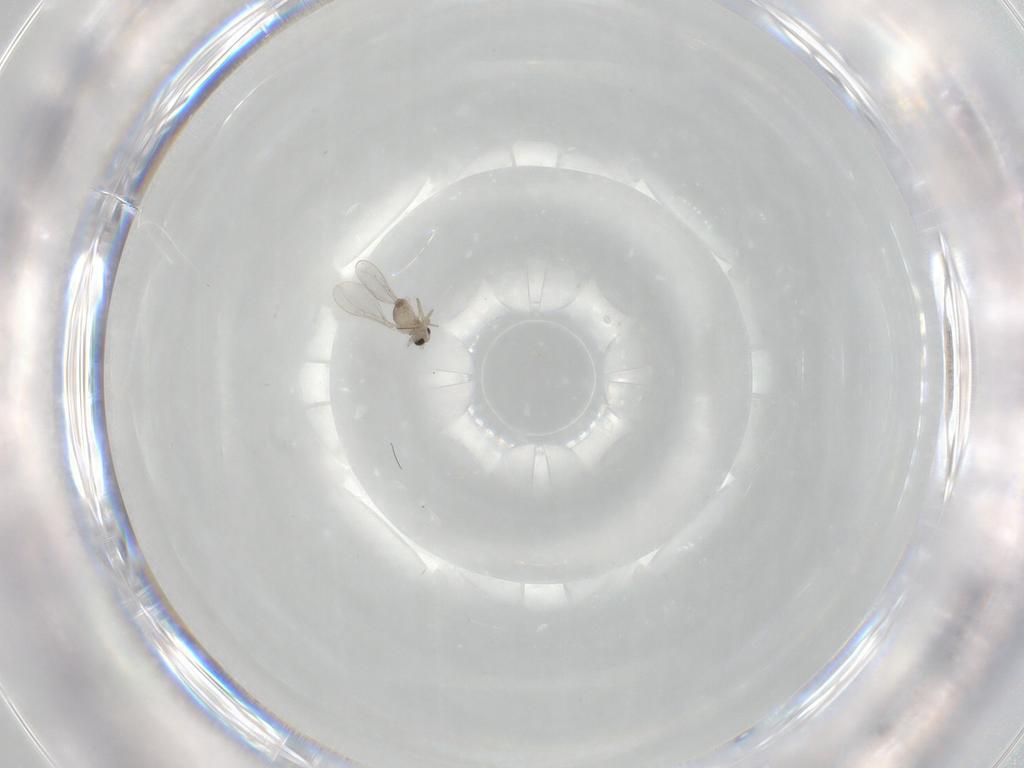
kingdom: Animalia
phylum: Arthropoda
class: Insecta
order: Diptera
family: Cecidomyiidae
